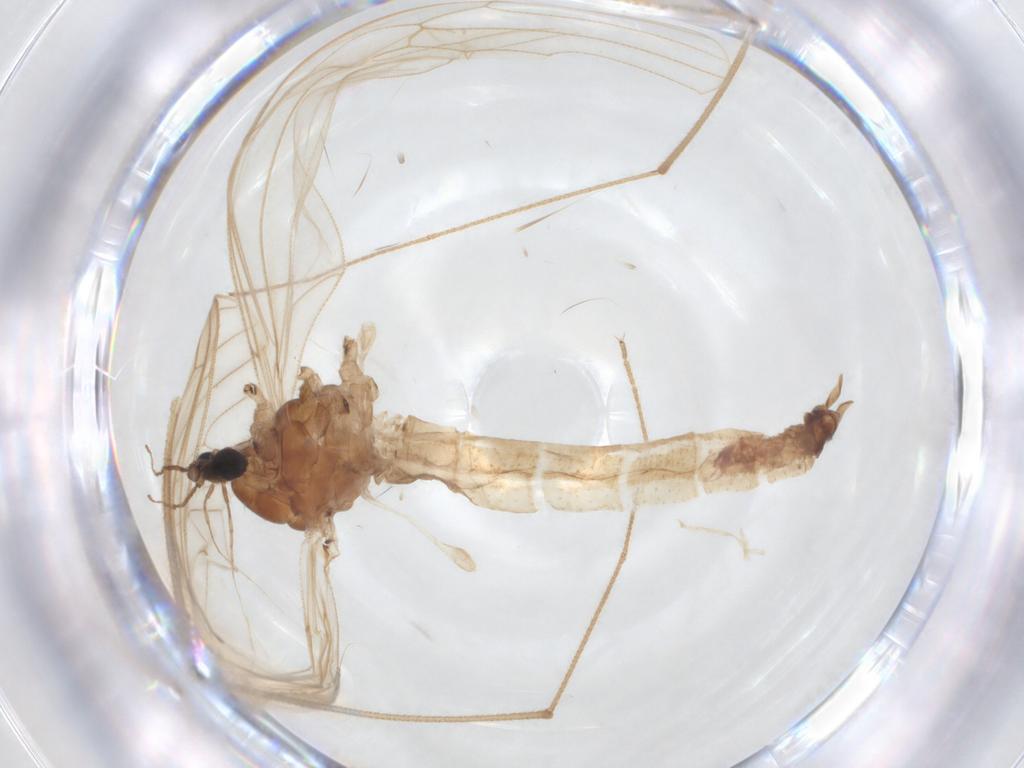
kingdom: Animalia
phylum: Arthropoda
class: Insecta
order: Diptera
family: Trichoceridae
